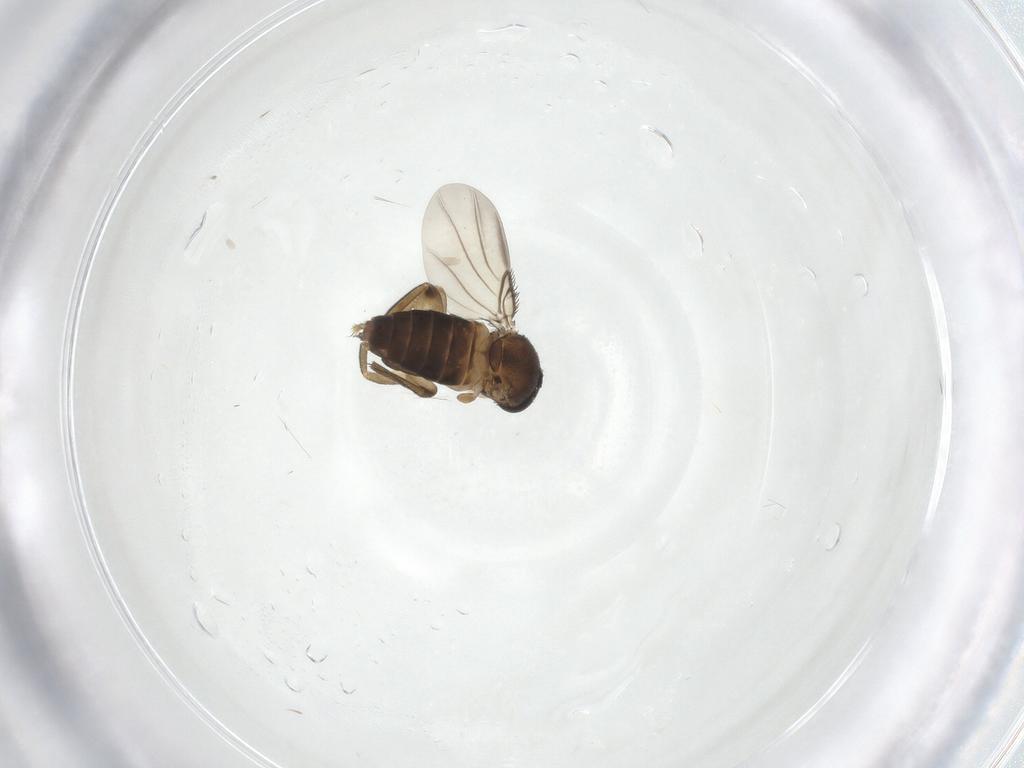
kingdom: Animalia
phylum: Arthropoda
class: Insecta
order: Diptera
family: Phoridae
